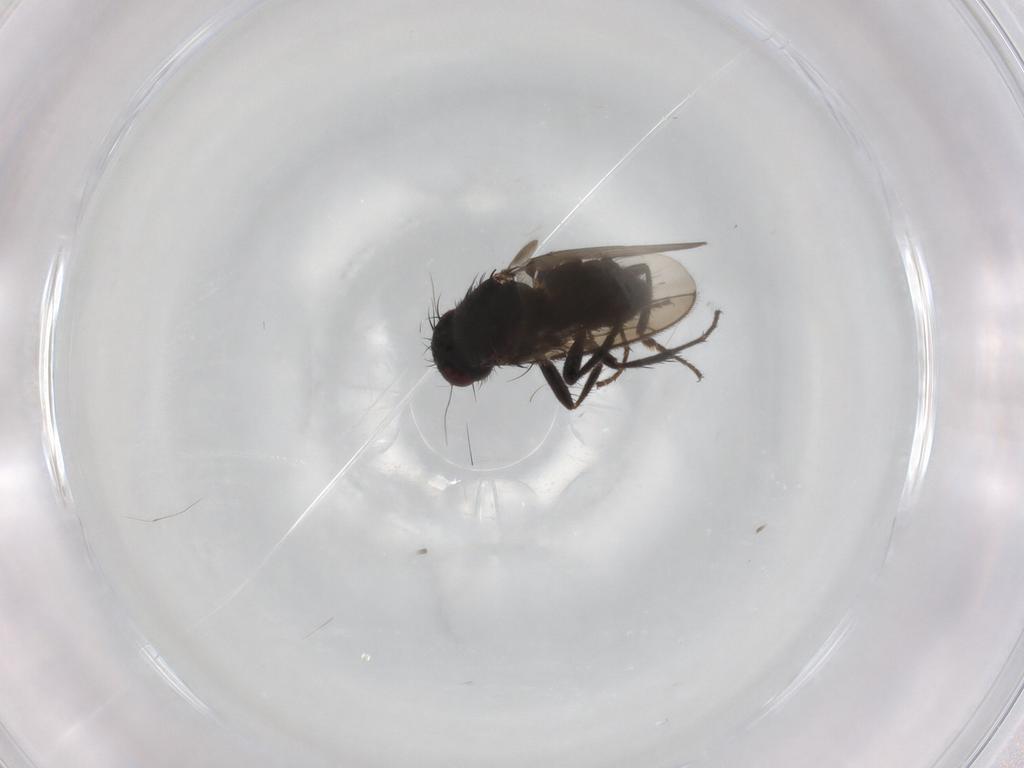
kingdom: Animalia
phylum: Arthropoda
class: Insecta
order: Diptera
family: Sphaeroceridae
